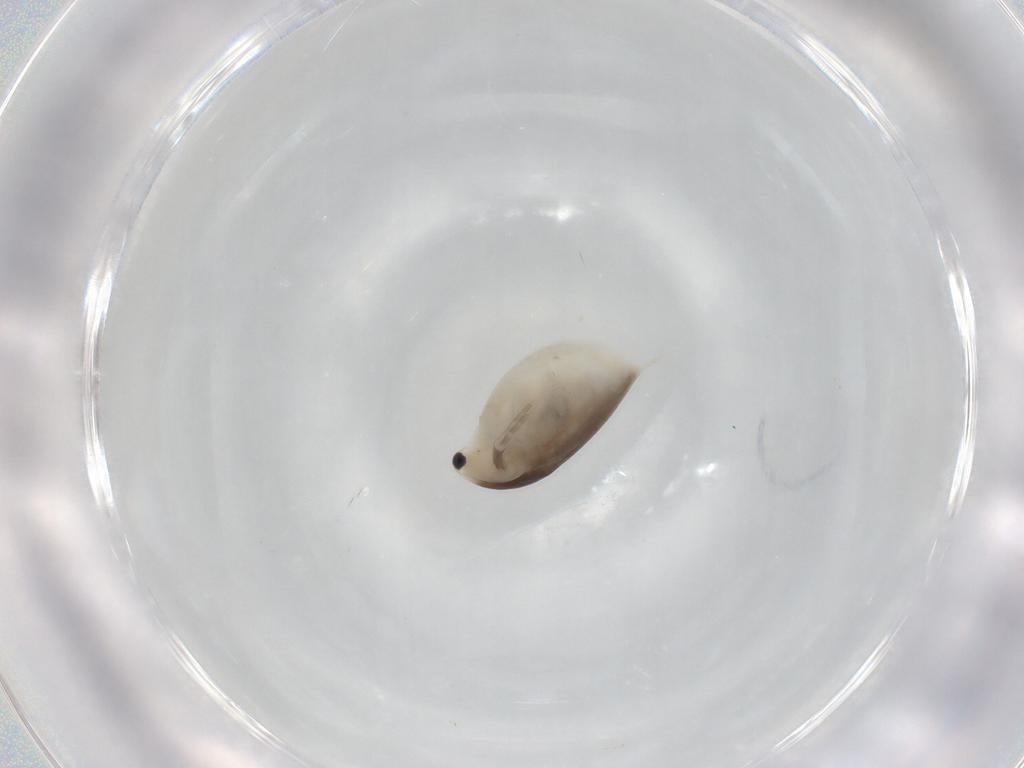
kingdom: Animalia
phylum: Arthropoda
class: Branchiopoda
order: Diplostraca
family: Daphniidae
